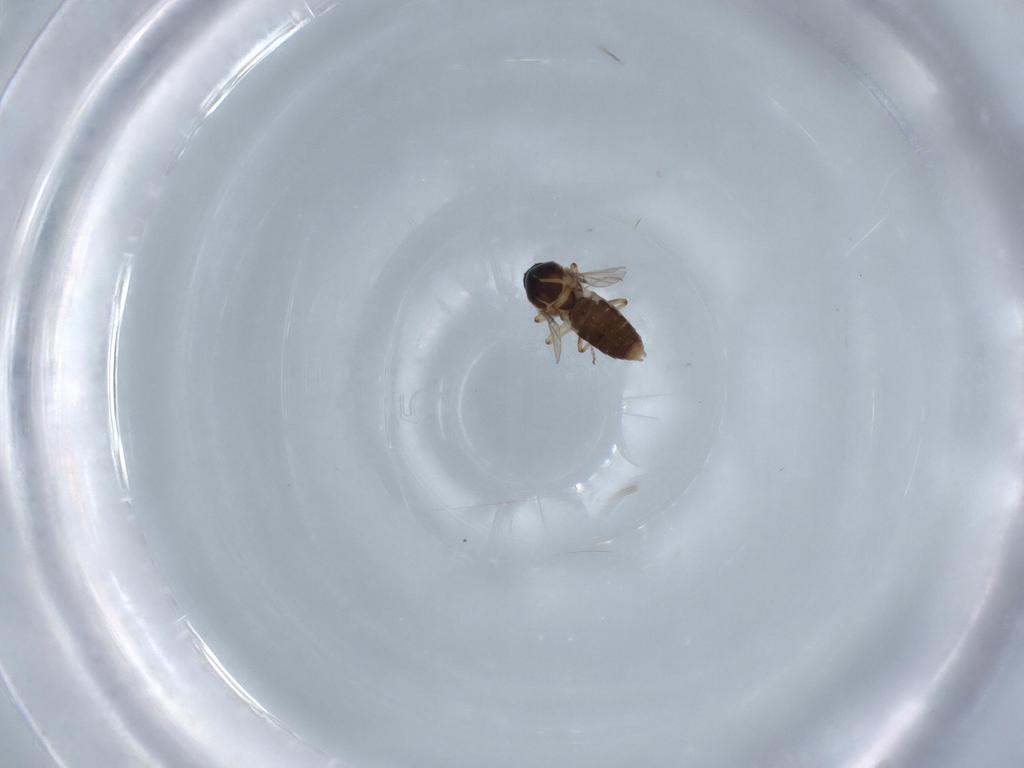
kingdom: Animalia
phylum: Arthropoda
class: Insecta
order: Diptera
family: Ceratopogonidae
